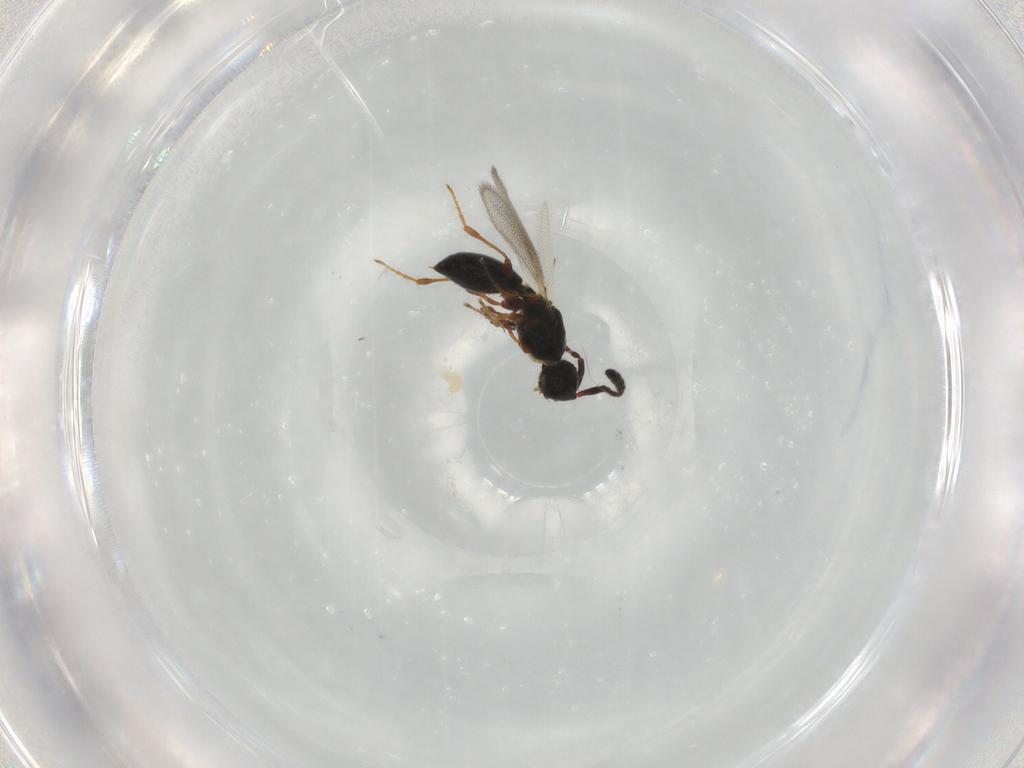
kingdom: Animalia
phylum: Arthropoda
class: Insecta
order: Hymenoptera
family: Diapriidae
